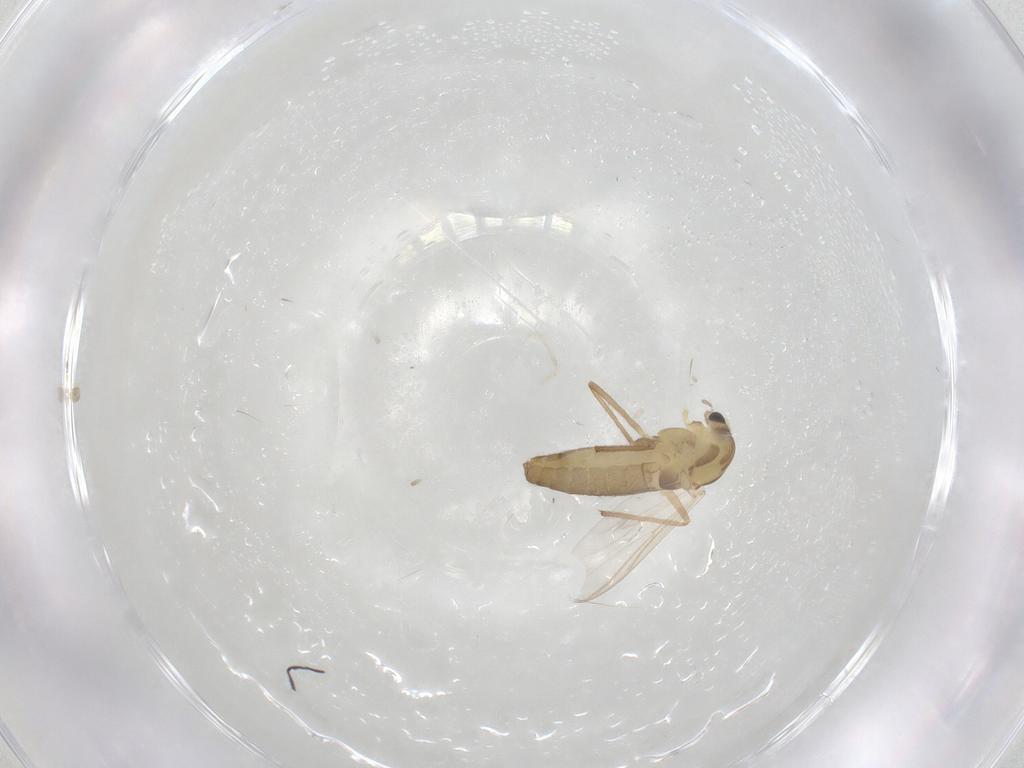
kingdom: Animalia
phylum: Arthropoda
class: Insecta
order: Diptera
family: Chironomidae
